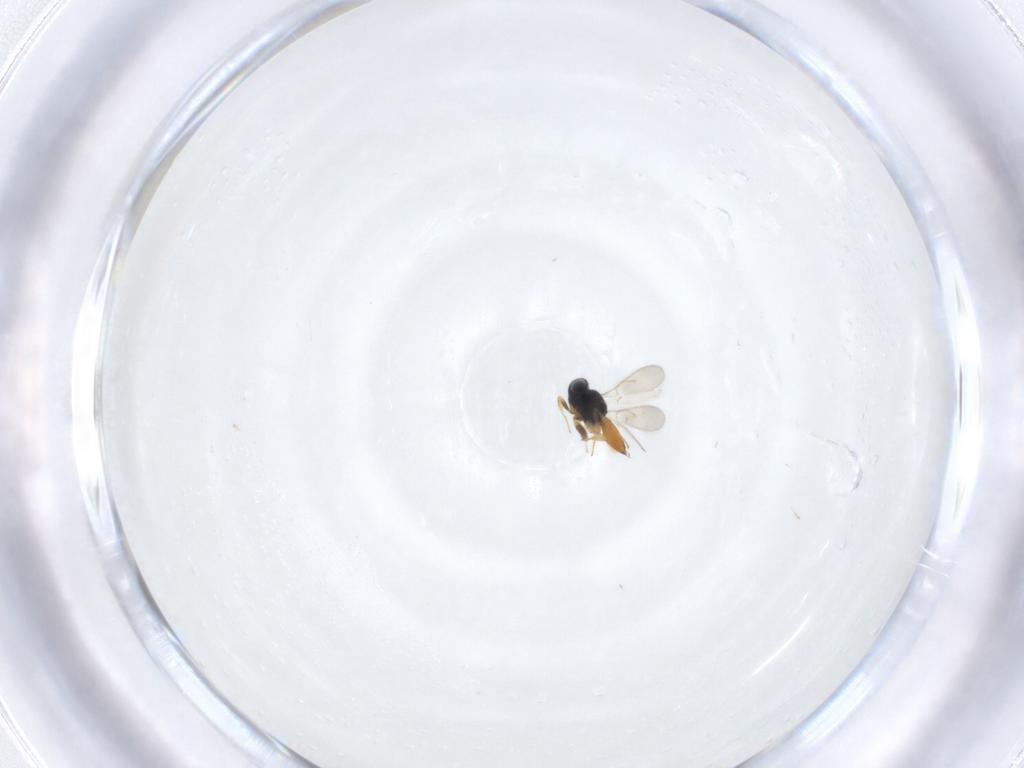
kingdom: Animalia
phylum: Arthropoda
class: Insecta
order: Hymenoptera
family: Scelionidae
